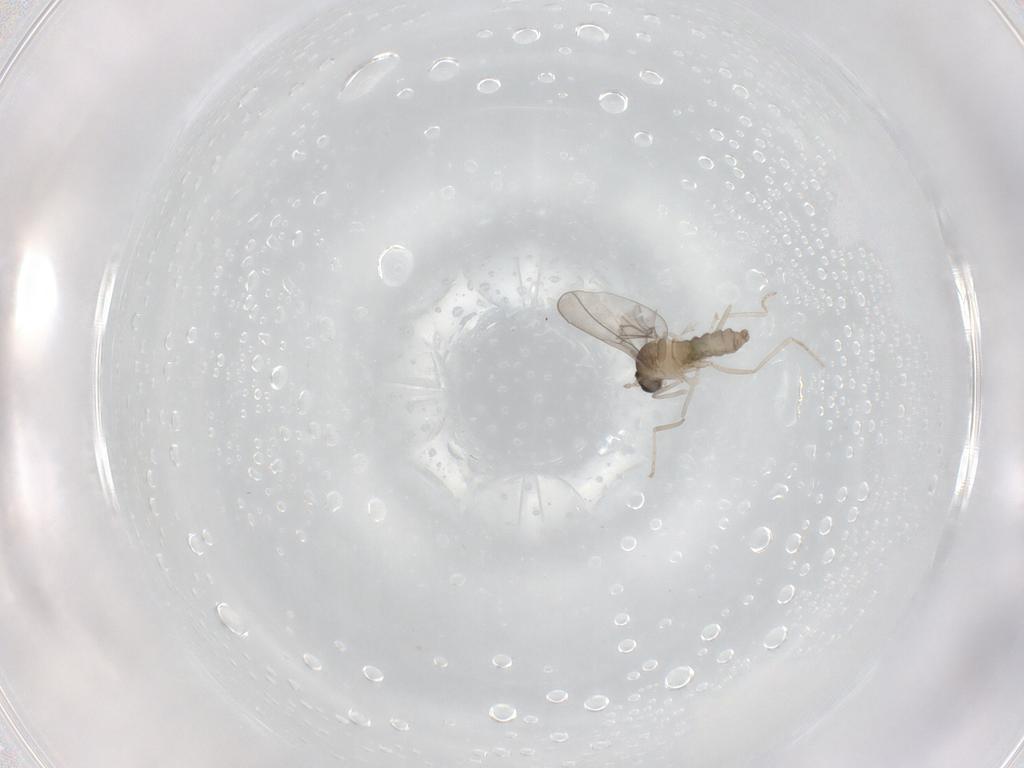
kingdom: Animalia
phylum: Arthropoda
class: Insecta
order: Diptera
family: Cecidomyiidae
